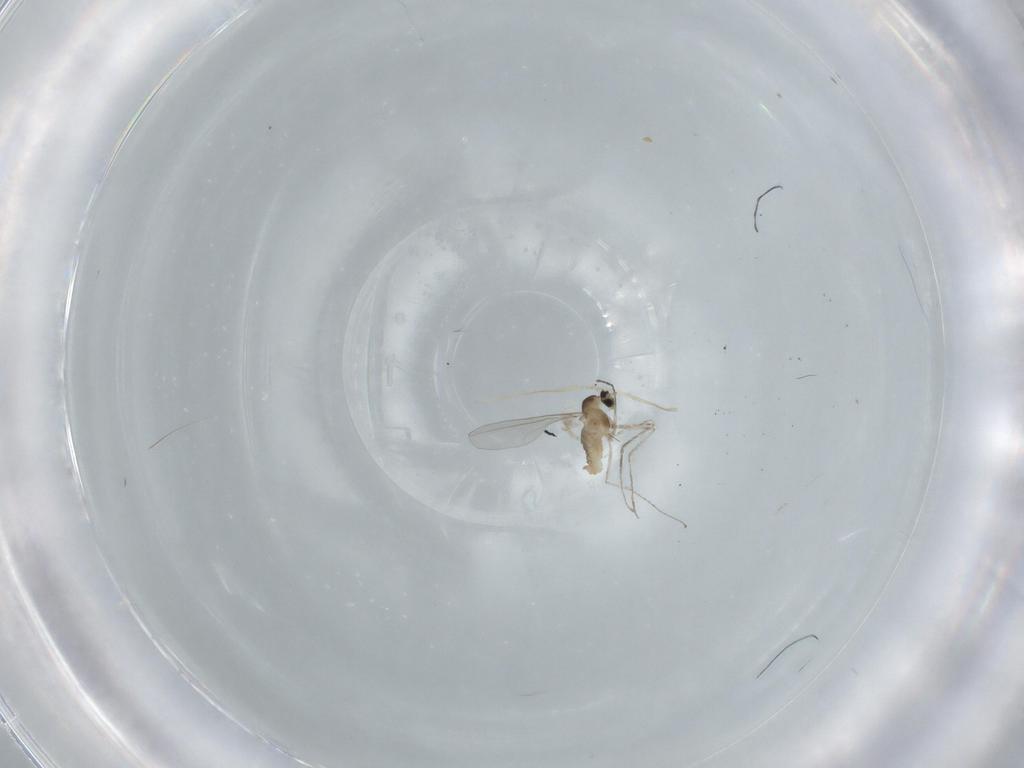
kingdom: Animalia
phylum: Arthropoda
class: Insecta
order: Diptera
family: Cecidomyiidae
